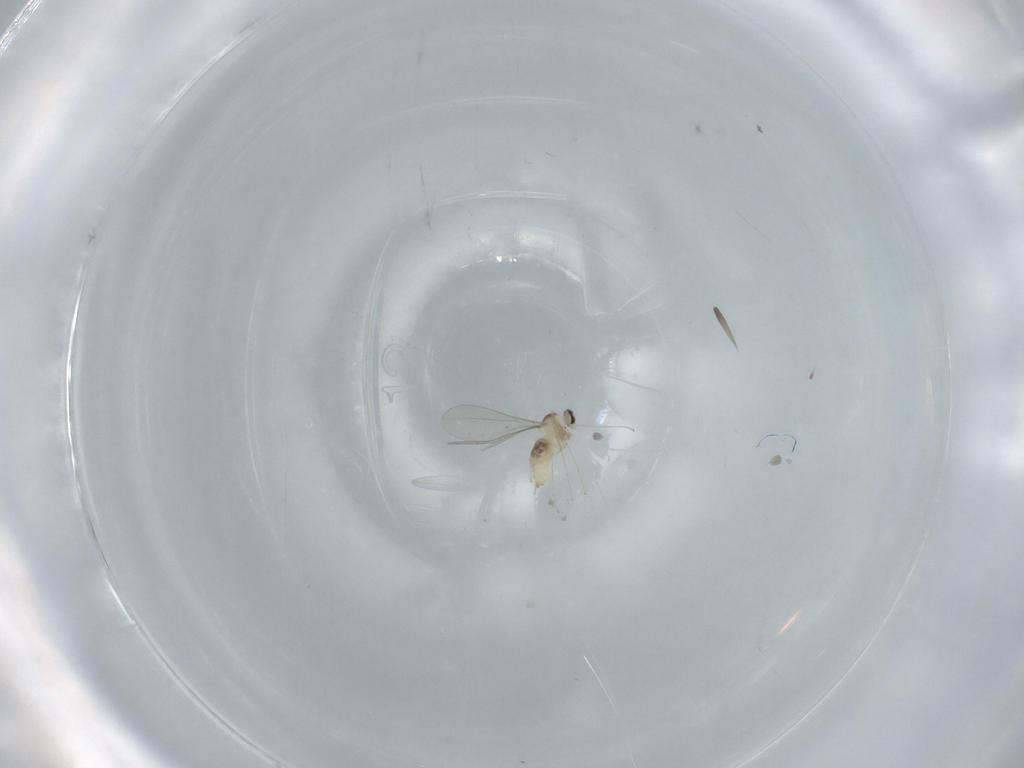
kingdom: Animalia
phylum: Arthropoda
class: Insecta
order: Diptera
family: Cecidomyiidae
